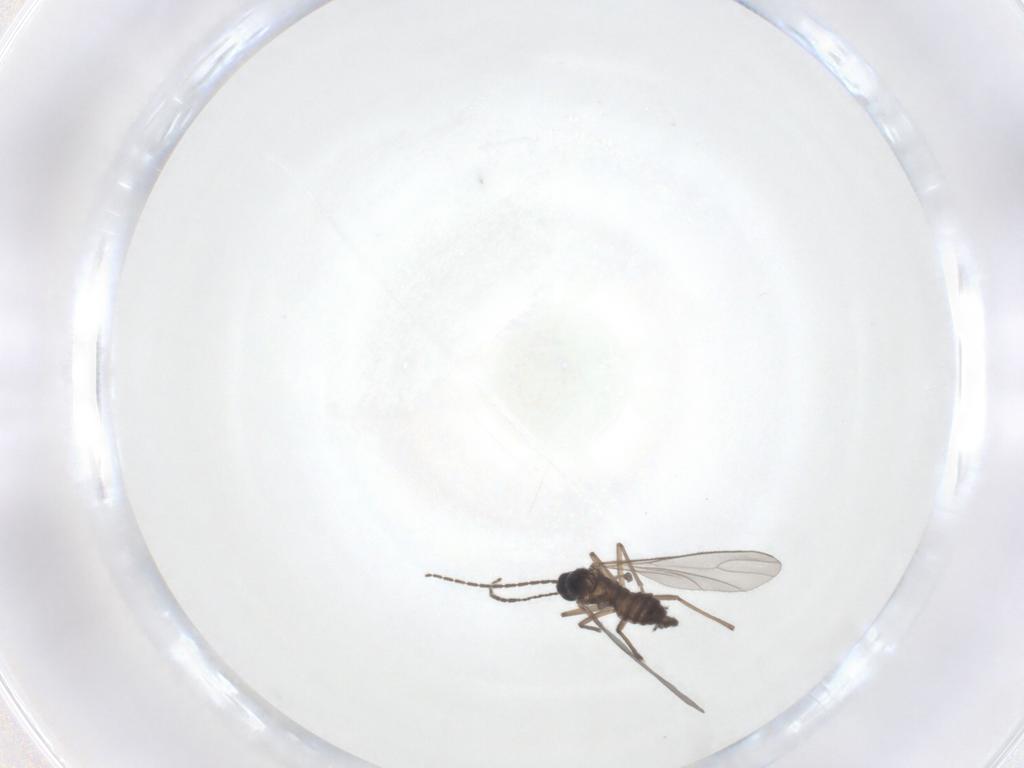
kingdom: Animalia
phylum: Arthropoda
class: Insecta
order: Diptera
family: Sciaridae
